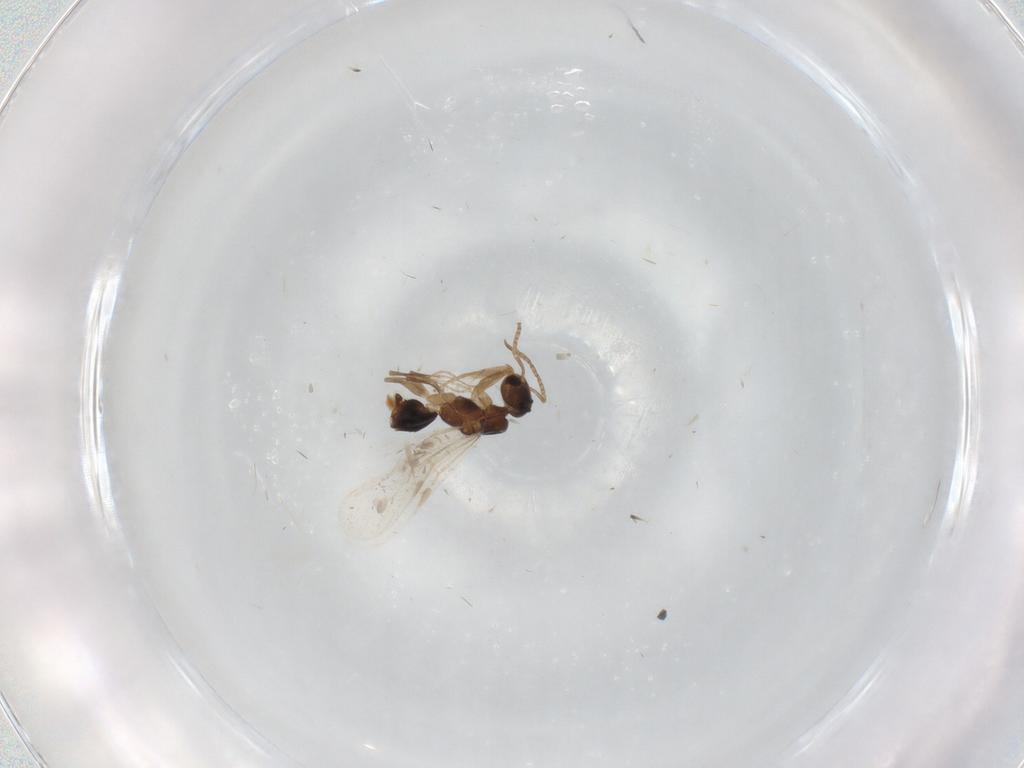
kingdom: Animalia
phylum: Arthropoda
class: Insecta
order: Hymenoptera
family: Formicidae
